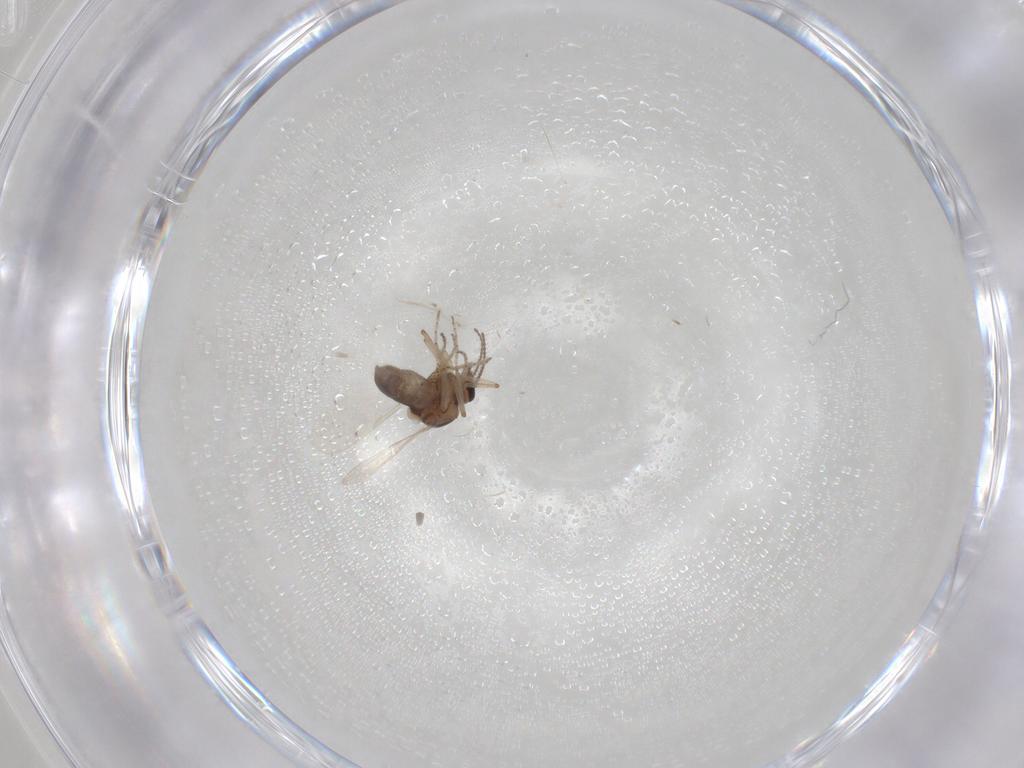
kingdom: Animalia
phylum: Arthropoda
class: Insecta
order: Diptera
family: Ceratopogonidae
